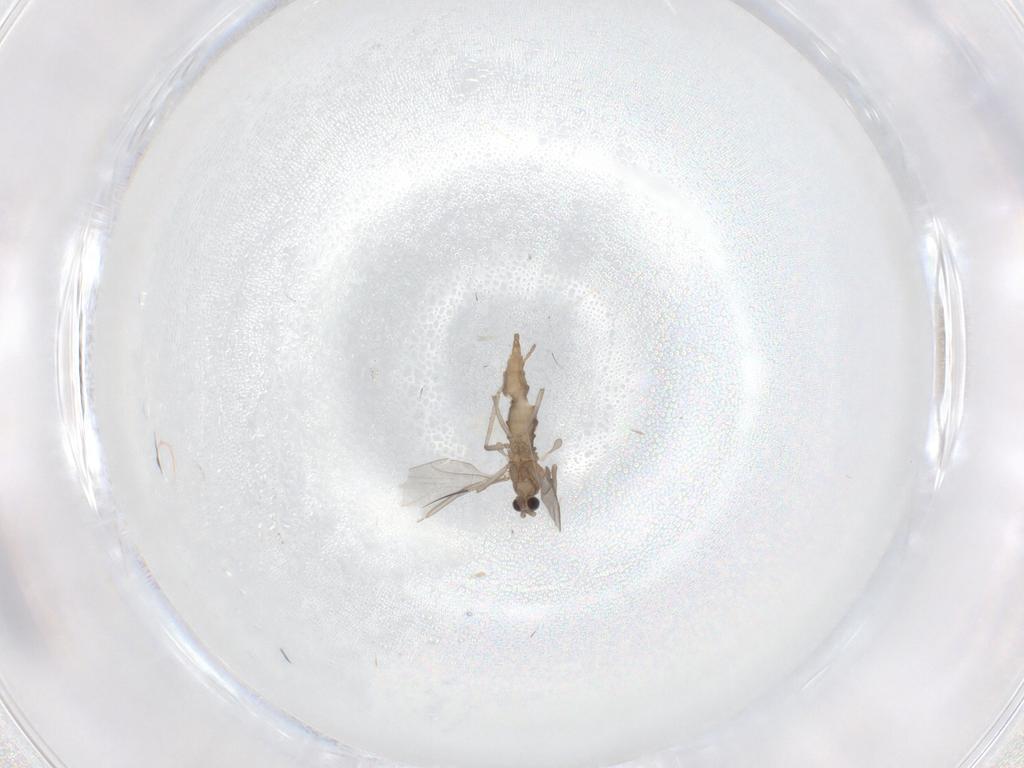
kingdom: Animalia
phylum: Arthropoda
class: Insecta
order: Diptera
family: Cecidomyiidae
